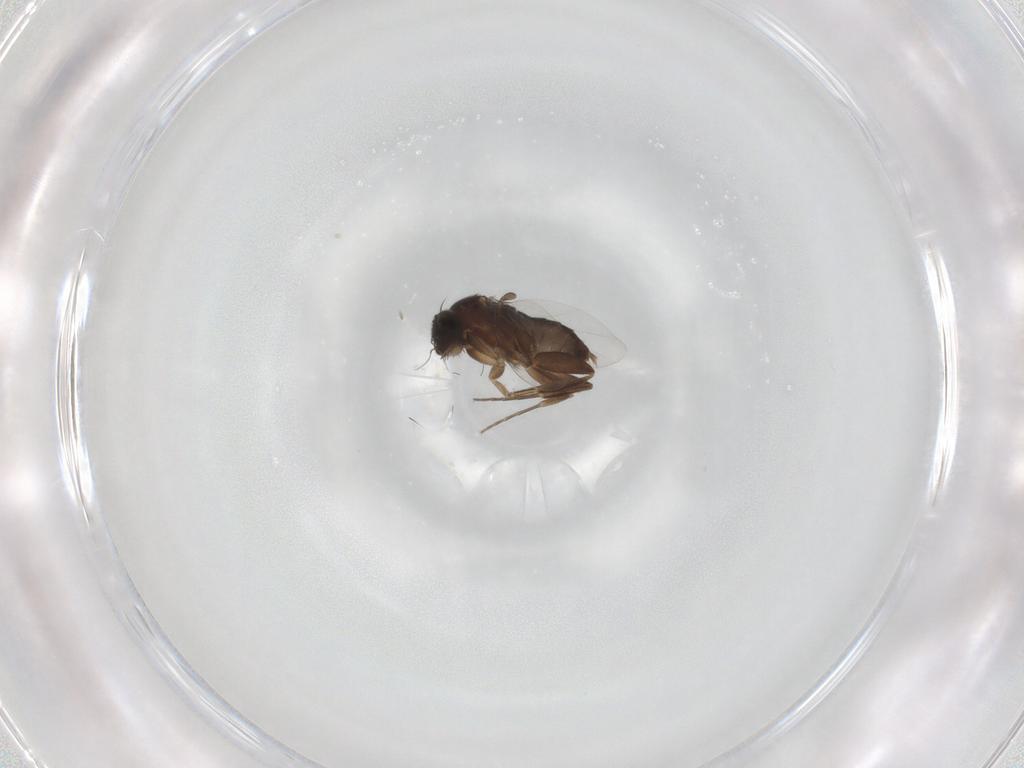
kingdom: Animalia
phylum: Arthropoda
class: Insecta
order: Diptera
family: Phoridae
